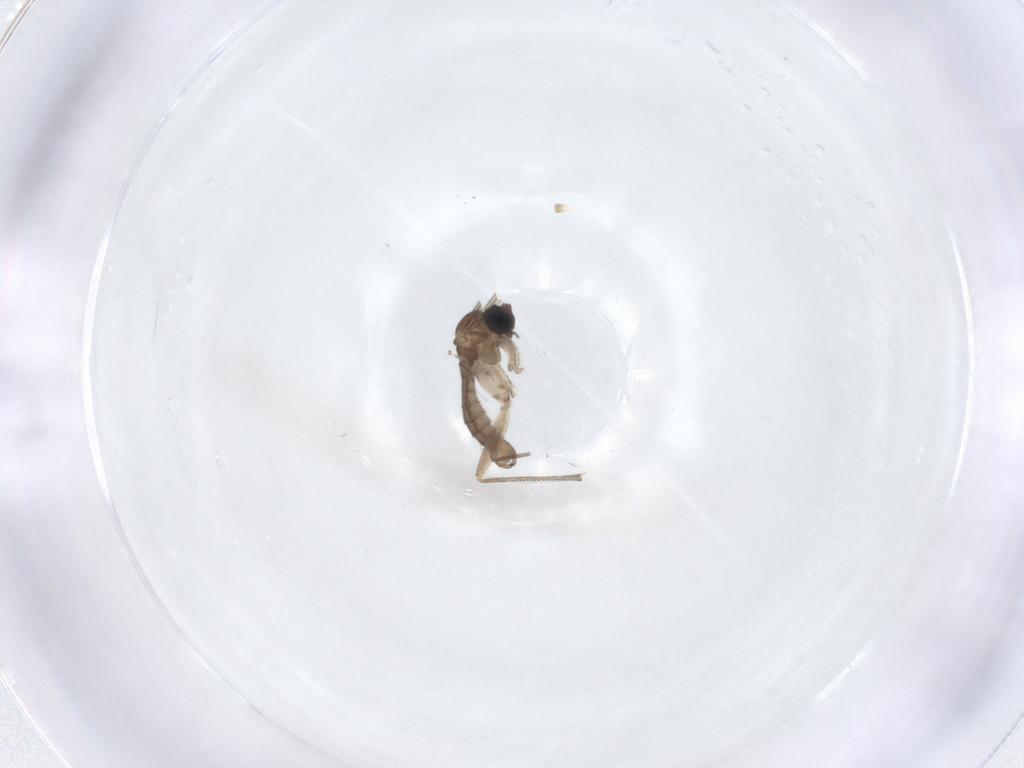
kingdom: Animalia
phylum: Arthropoda
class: Insecta
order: Diptera
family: Sciaridae
